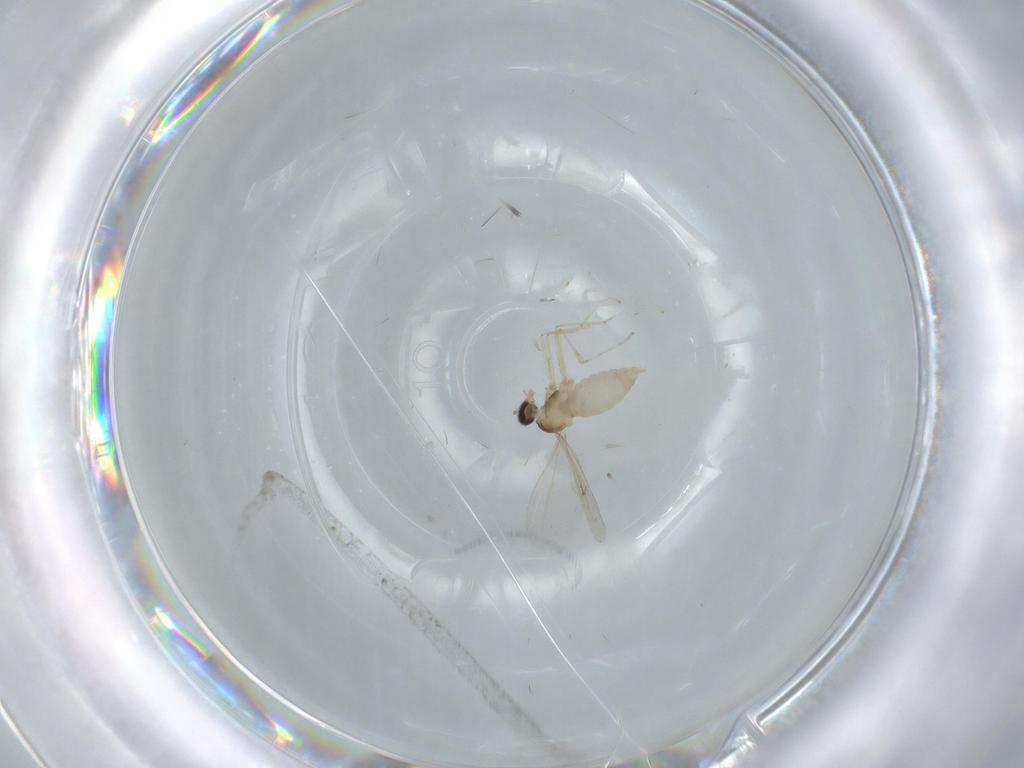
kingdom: Animalia
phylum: Arthropoda
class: Insecta
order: Diptera
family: Cecidomyiidae
